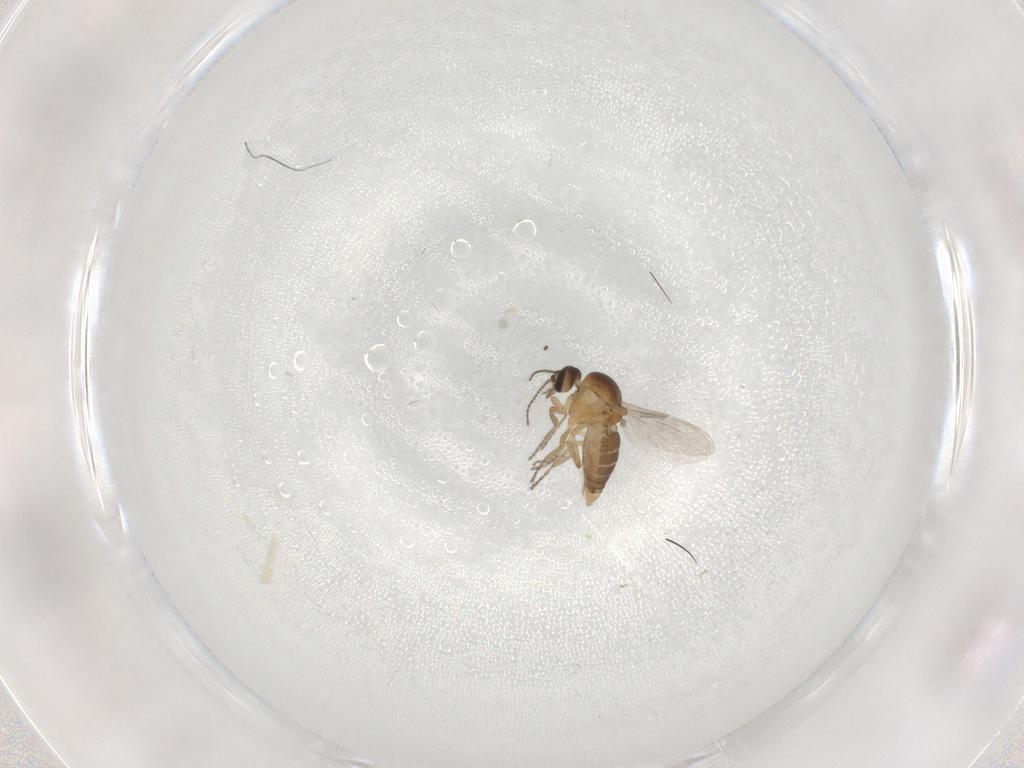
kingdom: Animalia
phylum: Arthropoda
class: Insecta
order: Diptera
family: Ceratopogonidae
